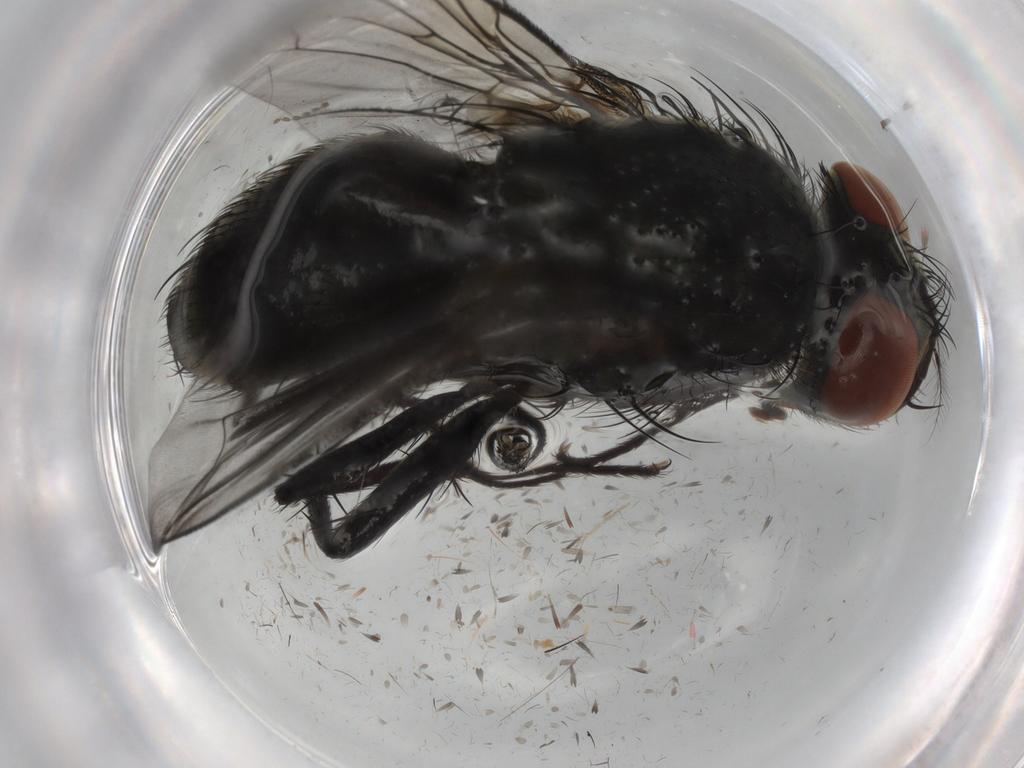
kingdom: Animalia
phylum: Arthropoda
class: Insecta
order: Diptera
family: Sarcophagidae
